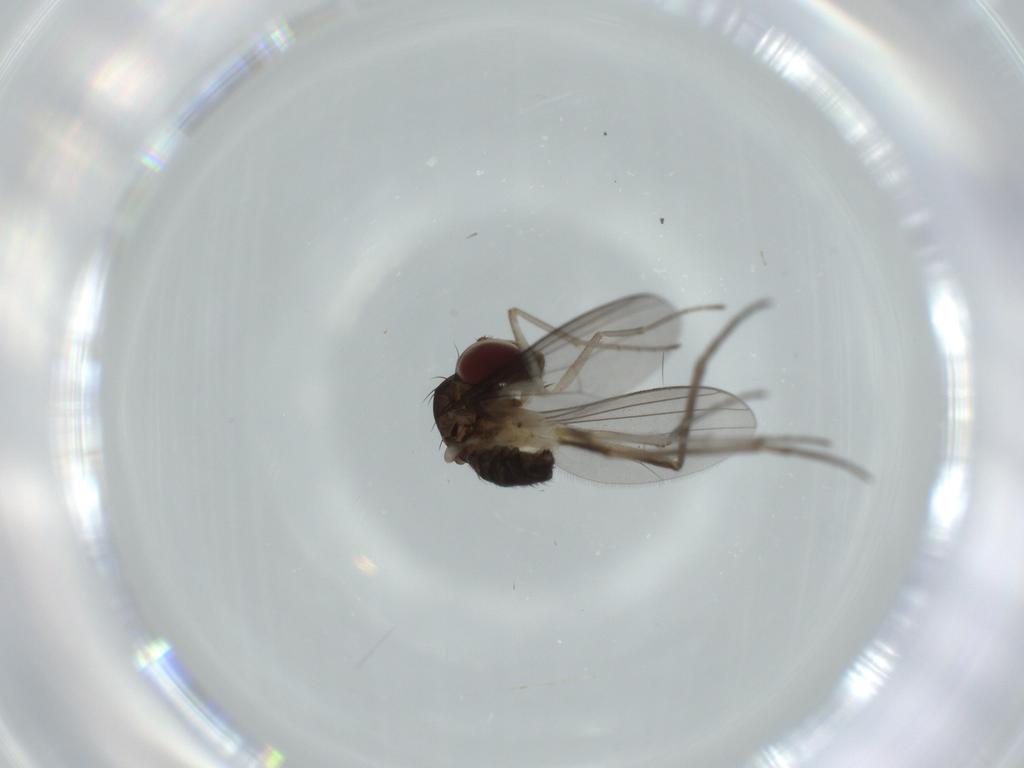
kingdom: Animalia
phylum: Arthropoda
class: Insecta
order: Diptera
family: Dolichopodidae
